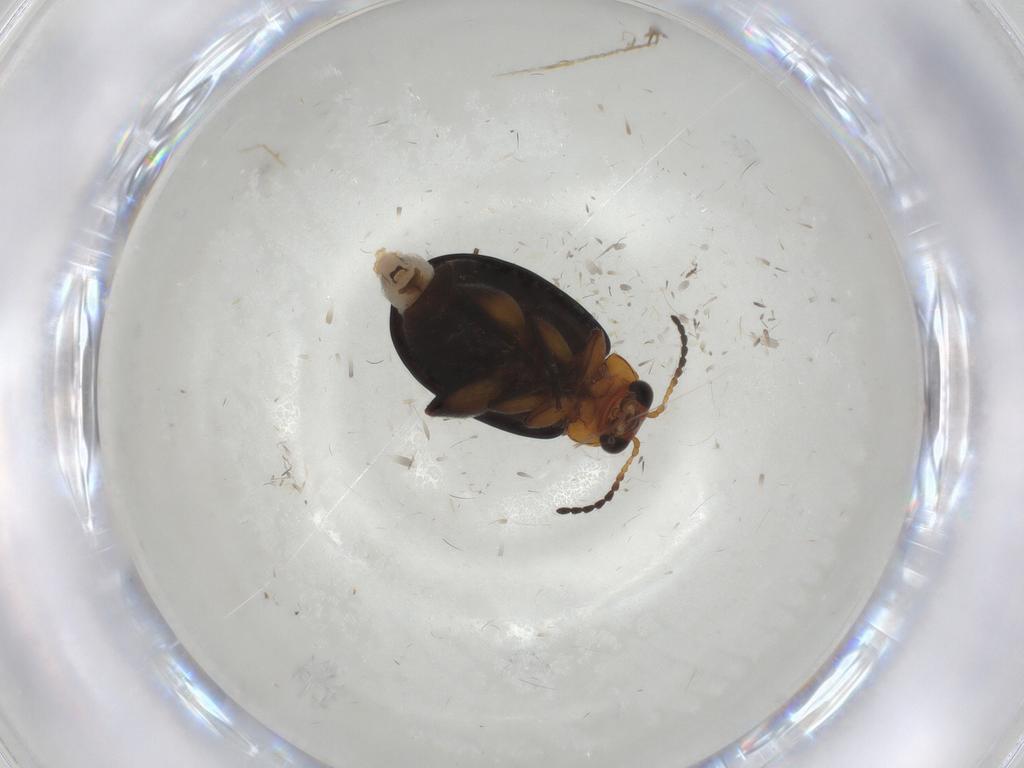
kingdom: Animalia
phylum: Arthropoda
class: Insecta
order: Coleoptera
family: Chrysomelidae
